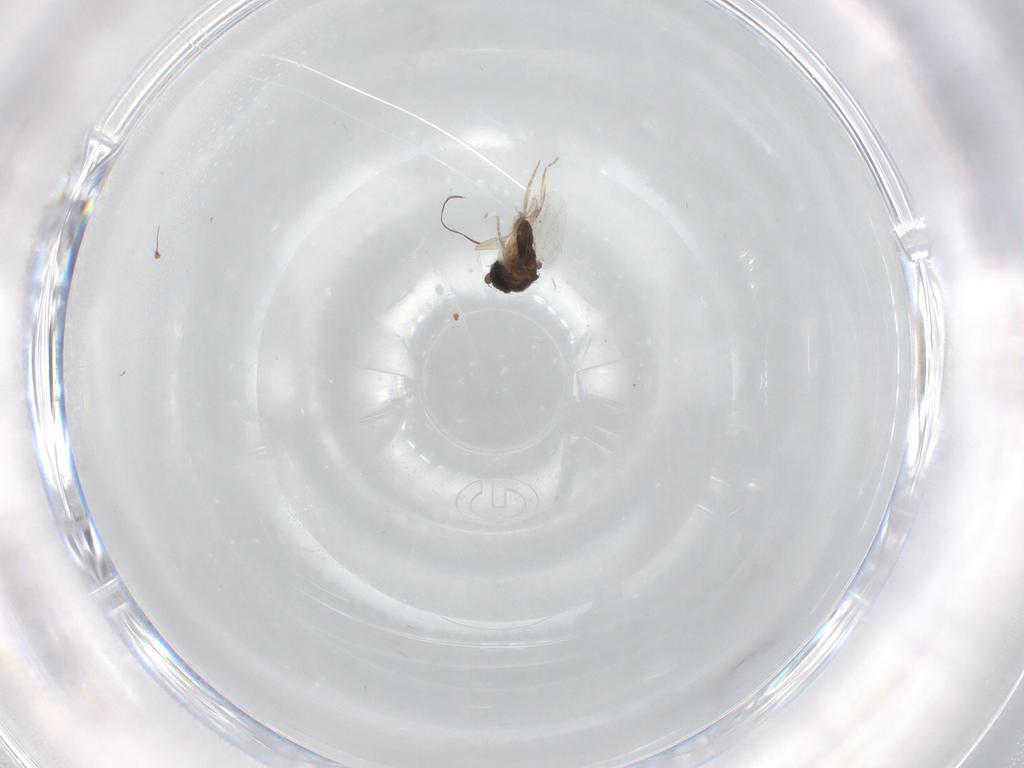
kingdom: Animalia
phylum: Arthropoda
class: Insecta
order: Diptera
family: Phoridae
